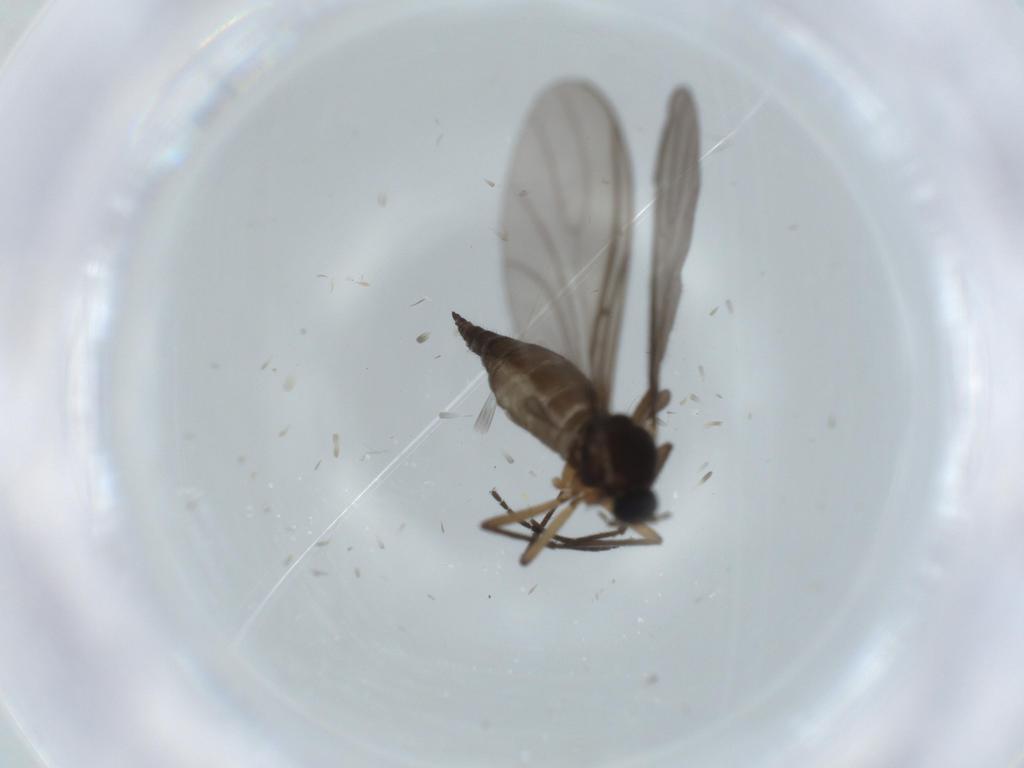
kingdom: Animalia
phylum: Arthropoda
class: Insecta
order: Diptera
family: Sciaridae
